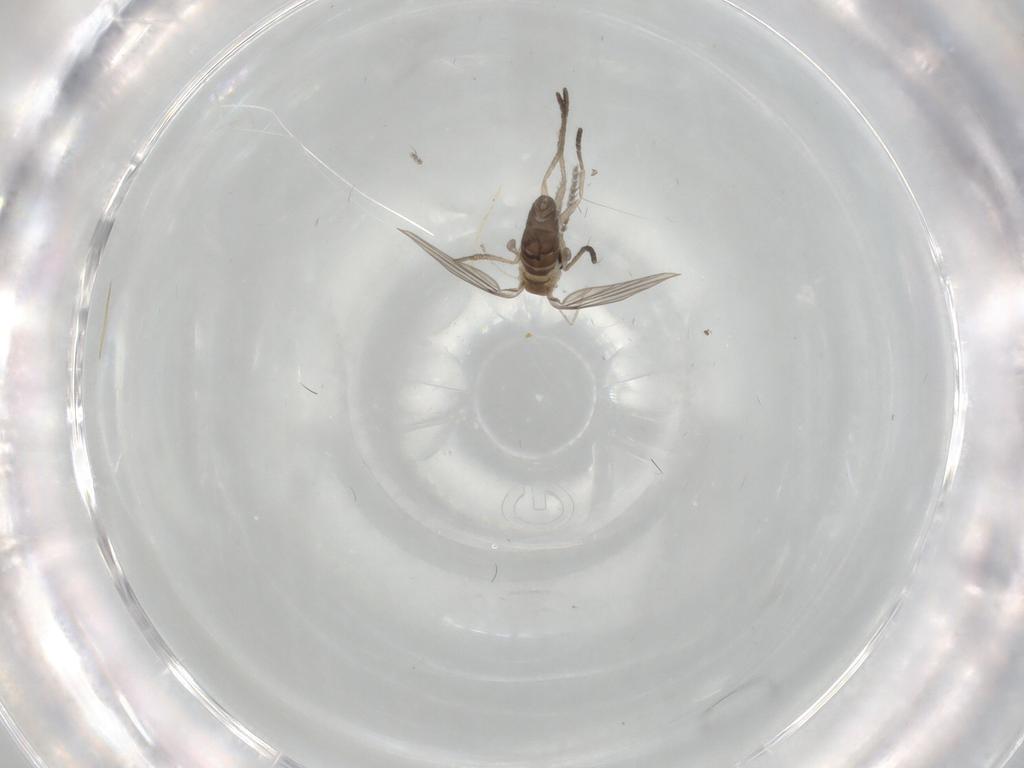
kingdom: Animalia
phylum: Arthropoda
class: Insecta
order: Diptera
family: Psychodidae
